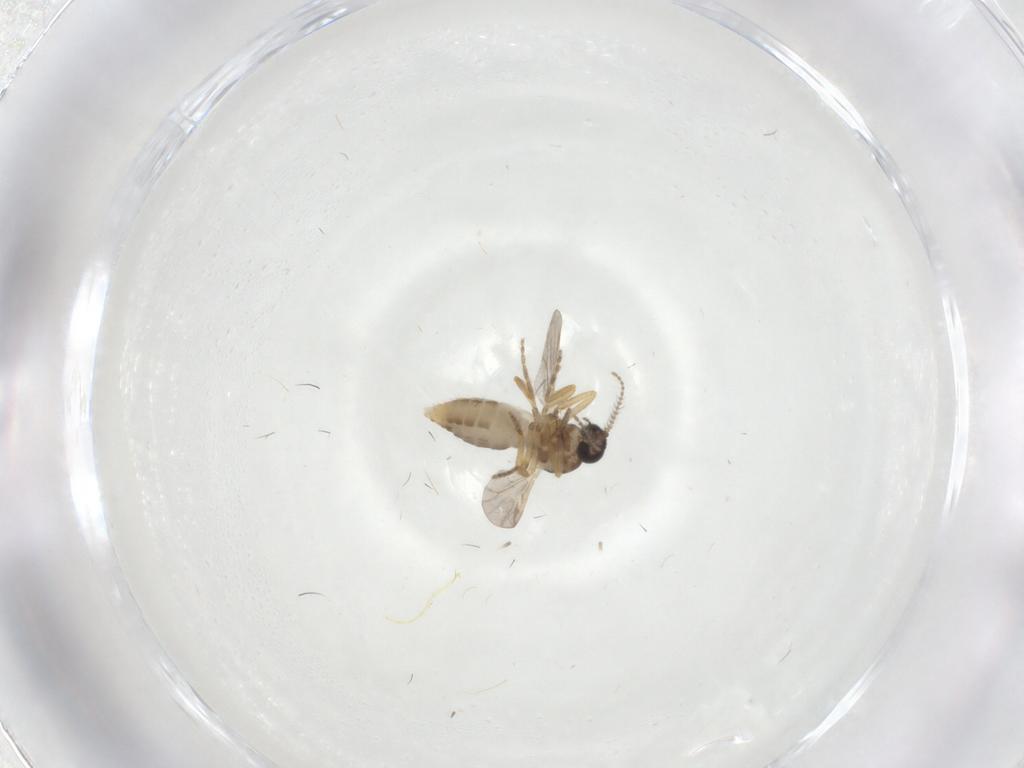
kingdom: Animalia
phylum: Arthropoda
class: Insecta
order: Diptera
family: Ceratopogonidae
